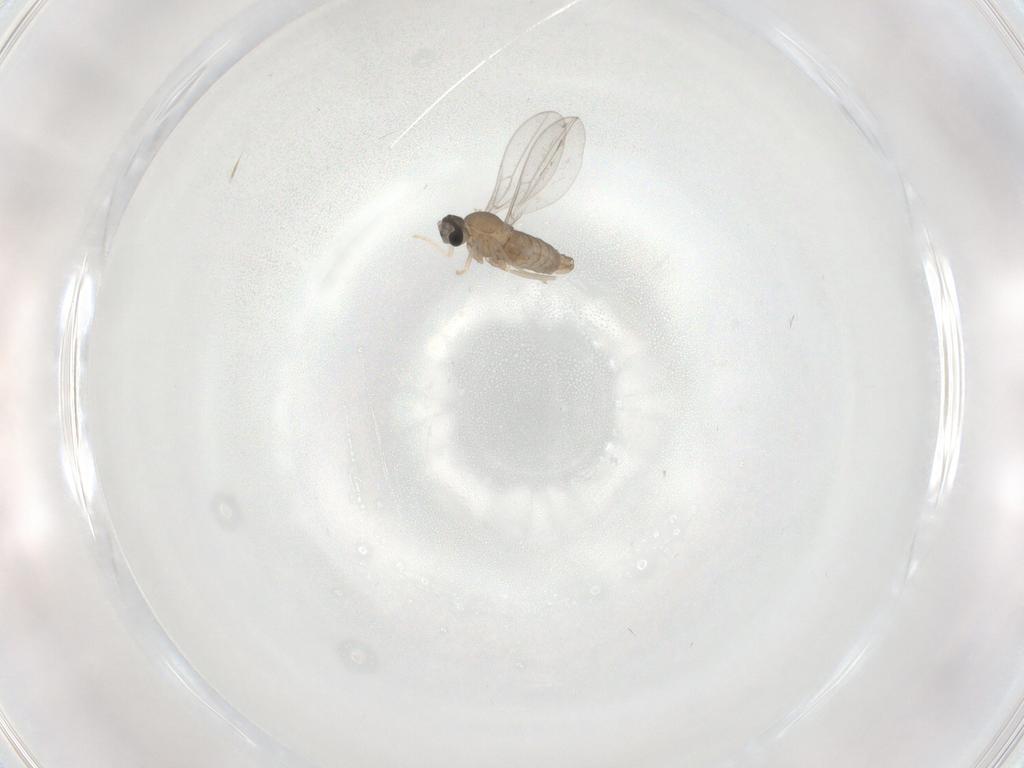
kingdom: Animalia
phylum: Arthropoda
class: Insecta
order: Diptera
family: Cecidomyiidae
